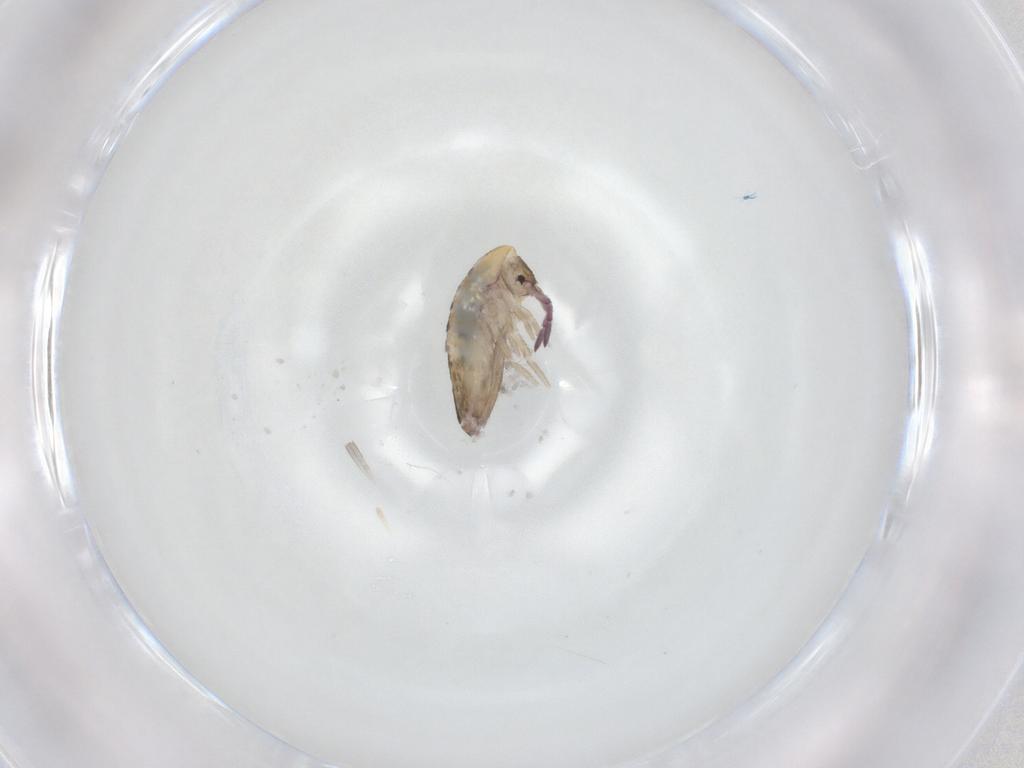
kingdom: Animalia
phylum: Arthropoda
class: Collembola
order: Entomobryomorpha
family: Entomobryidae
